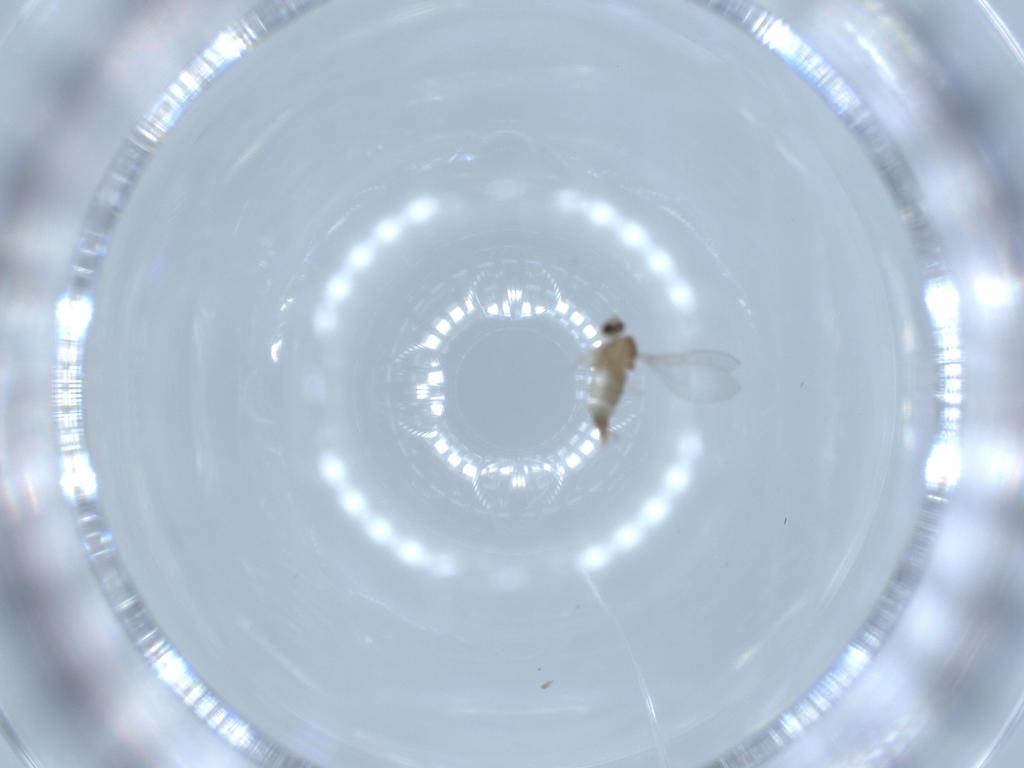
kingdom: Animalia
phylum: Arthropoda
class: Insecta
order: Diptera
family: Cecidomyiidae
